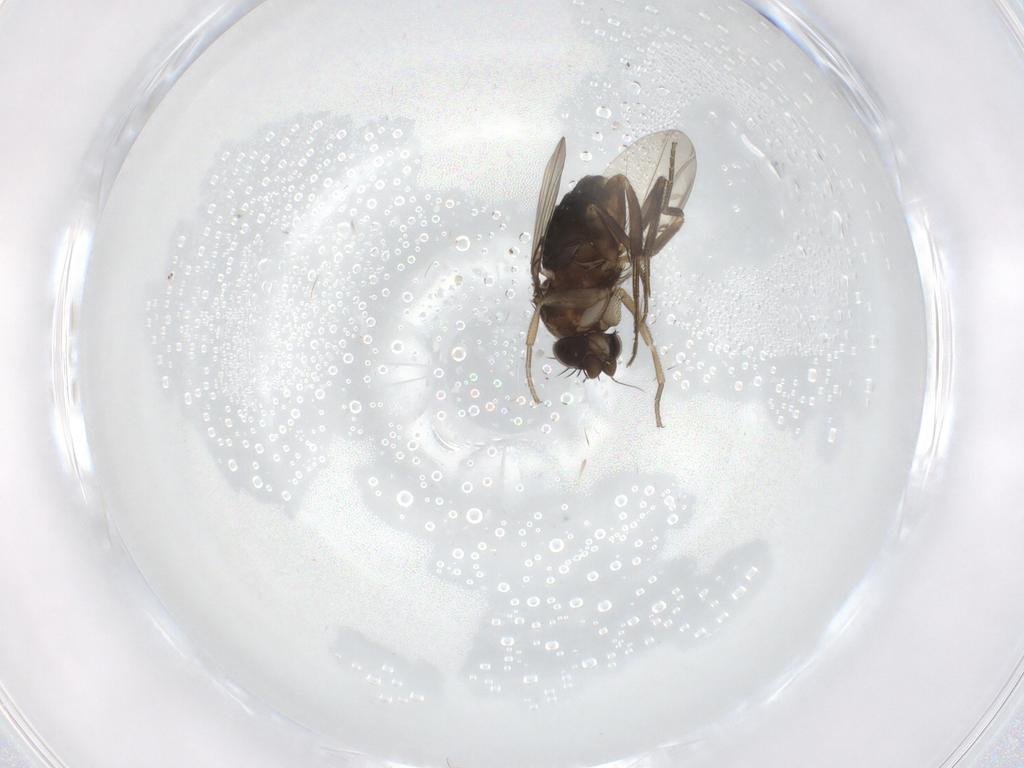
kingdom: Animalia
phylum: Arthropoda
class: Insecta
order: Diptera
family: Phoridae
